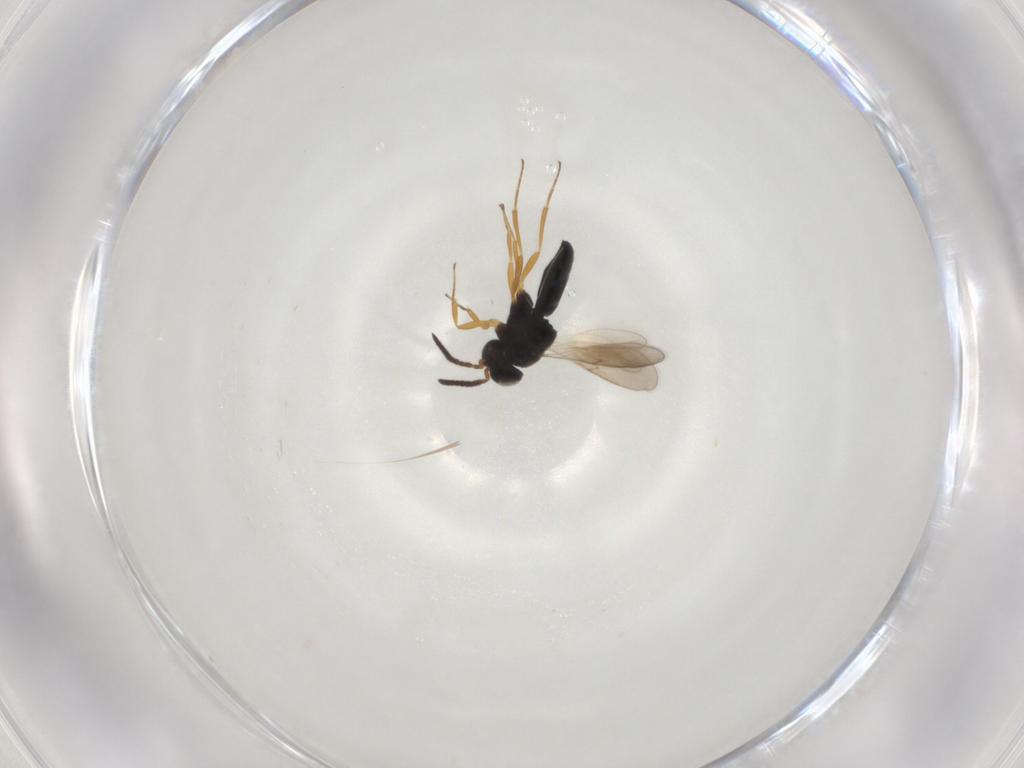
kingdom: Animalia
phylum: Arthropoda
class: Insecta
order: Hymenoptera
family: Scelionidae
